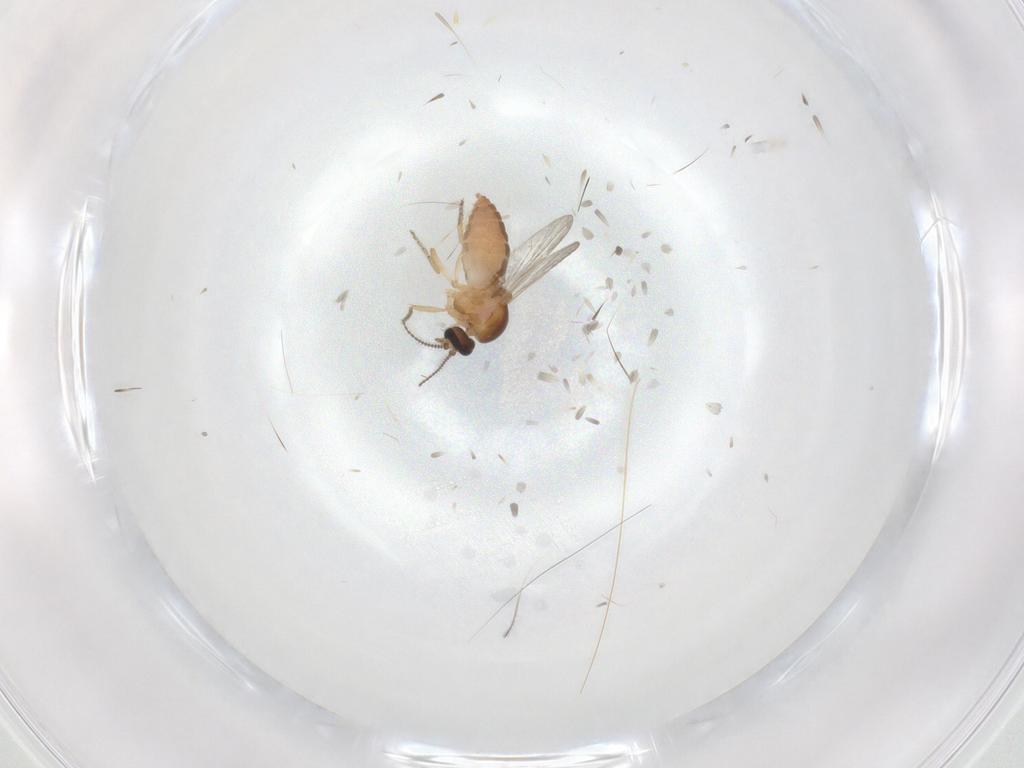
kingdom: Animalia
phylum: Arthropoda
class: Insecta
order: Diptera
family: Ceratopogonidae
